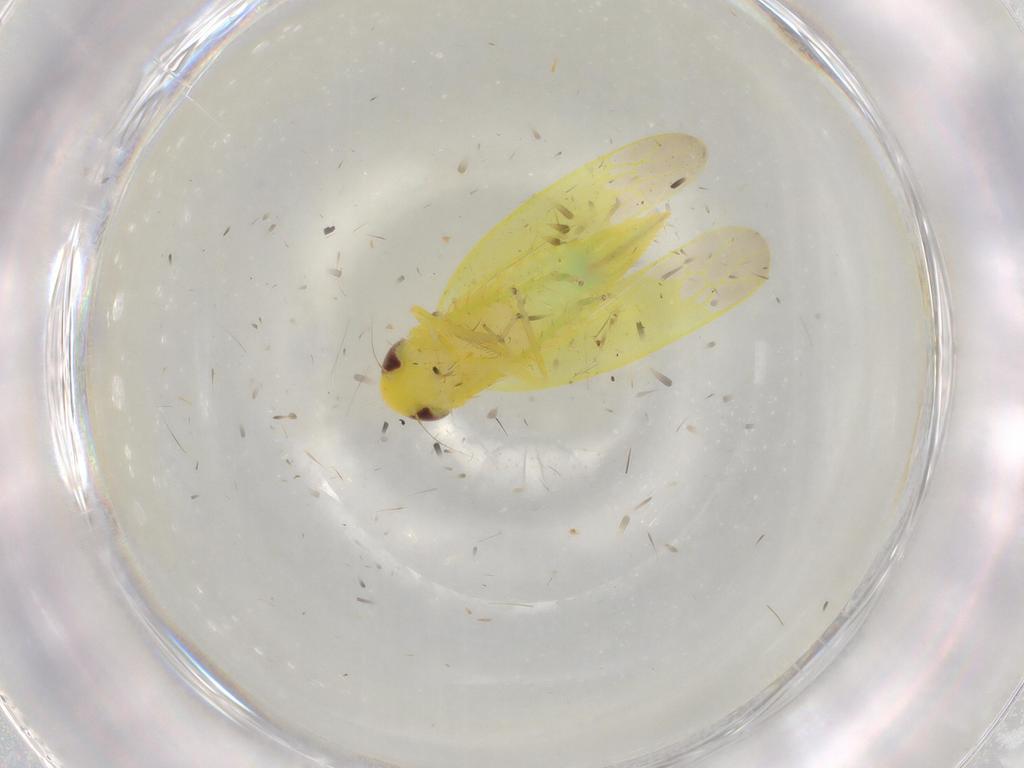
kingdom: Animalia
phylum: Arthropoda
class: Insecta
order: Hemiptera
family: Cicadellidae
